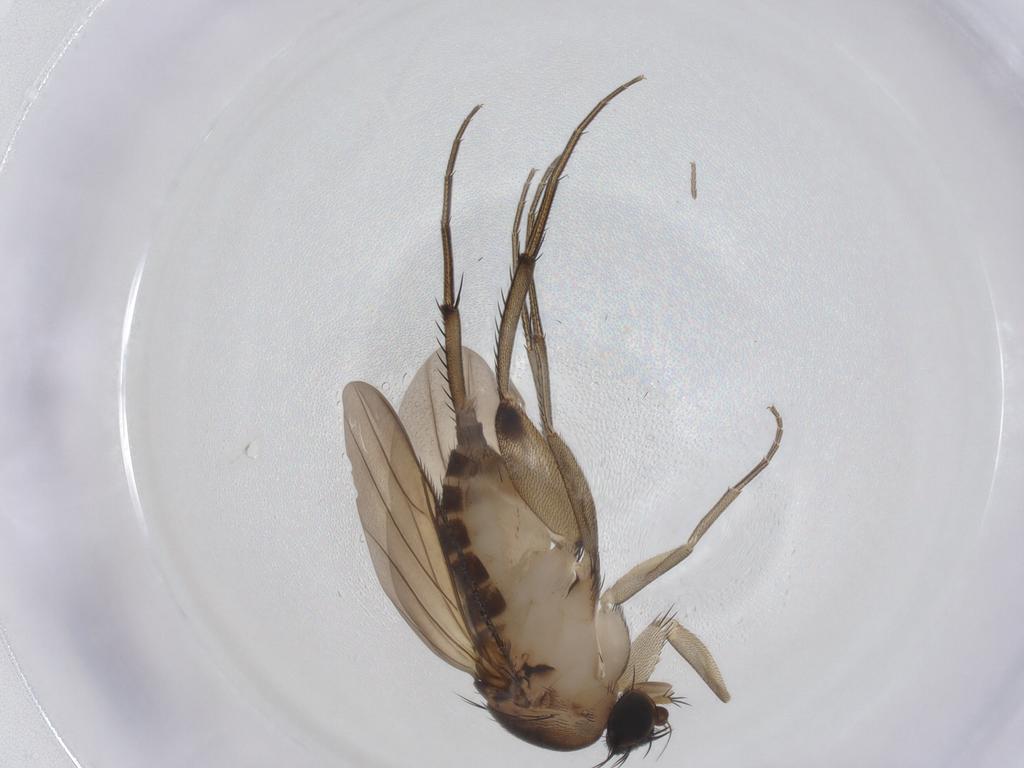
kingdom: Animalia
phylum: Arthropoda
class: Insecta
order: Diptera
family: Phoridae
